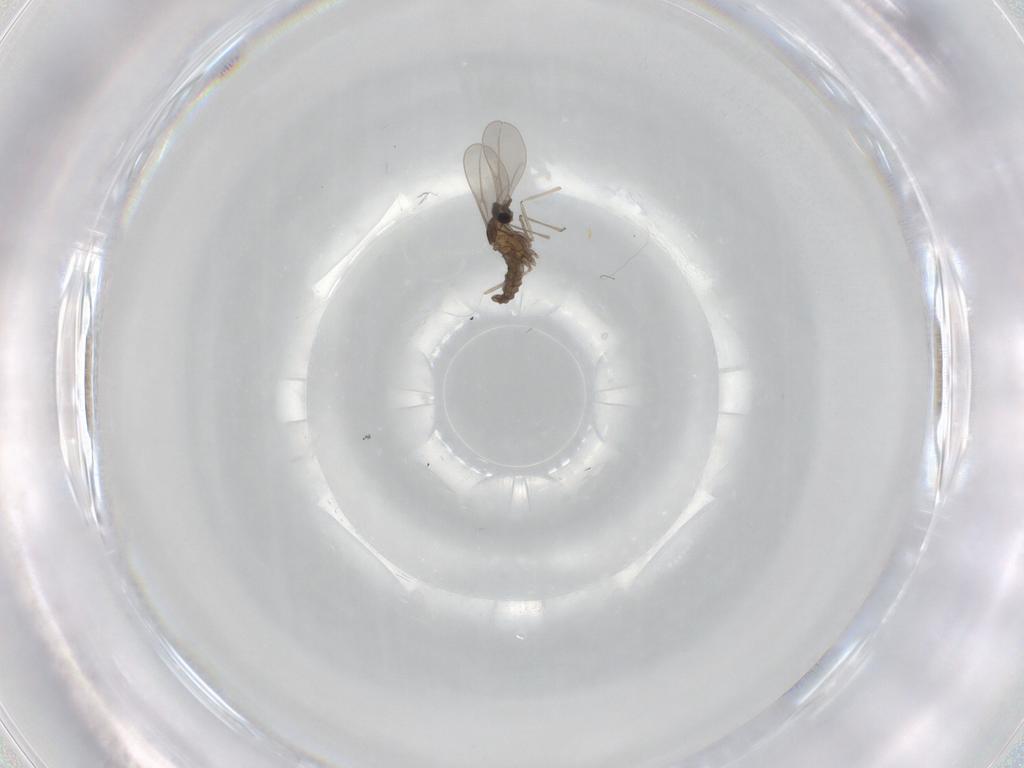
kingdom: Animalia
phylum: Arthropoda
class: Insecta
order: Diptera
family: Cecidomyiidae
